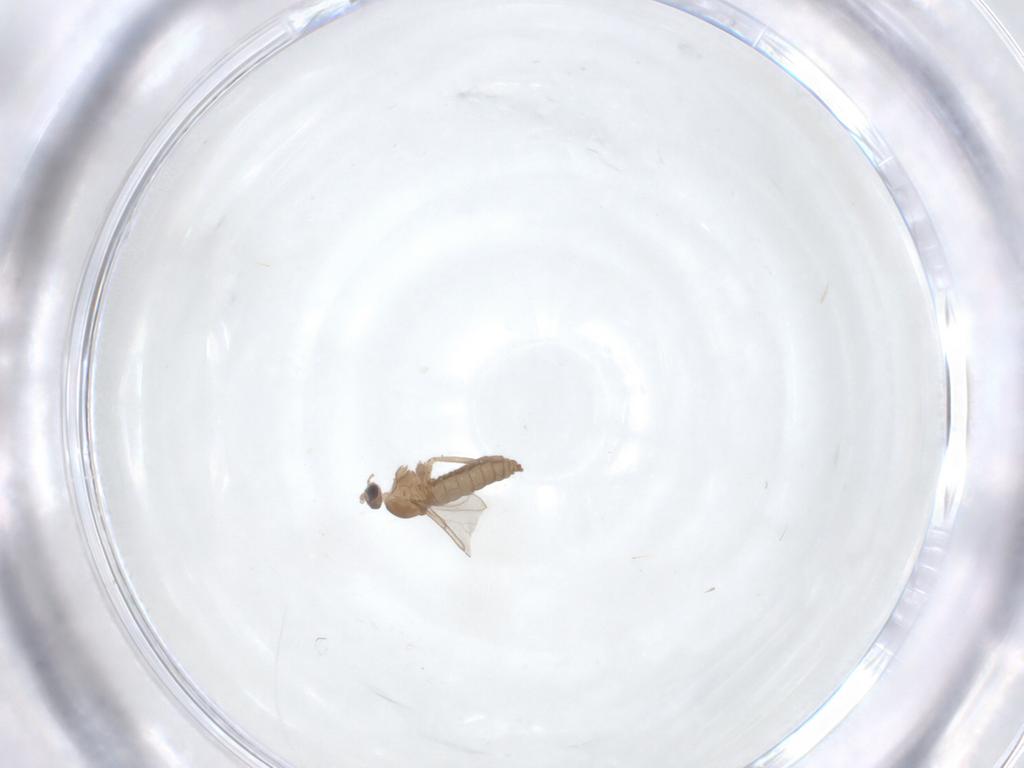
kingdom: Animalia
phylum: Arthropoda
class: Insecta
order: Diptera
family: Cecidomyiidae
